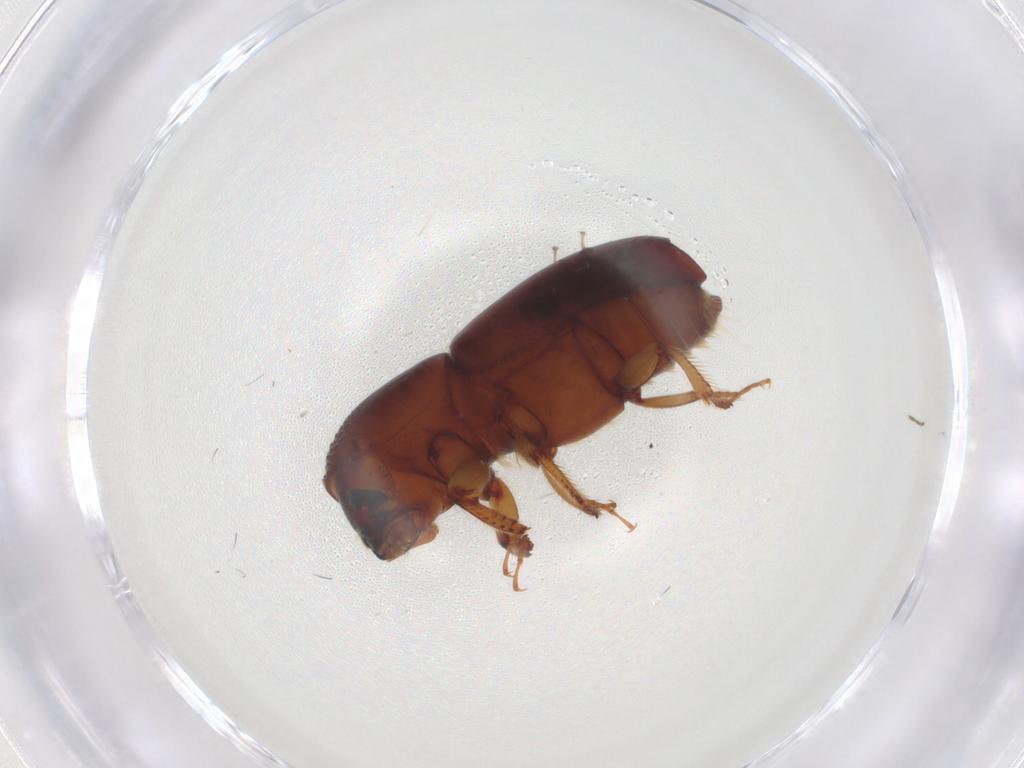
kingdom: Animalia
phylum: Arthropoda
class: Insecta
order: Coleoptera
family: Curculionidae
